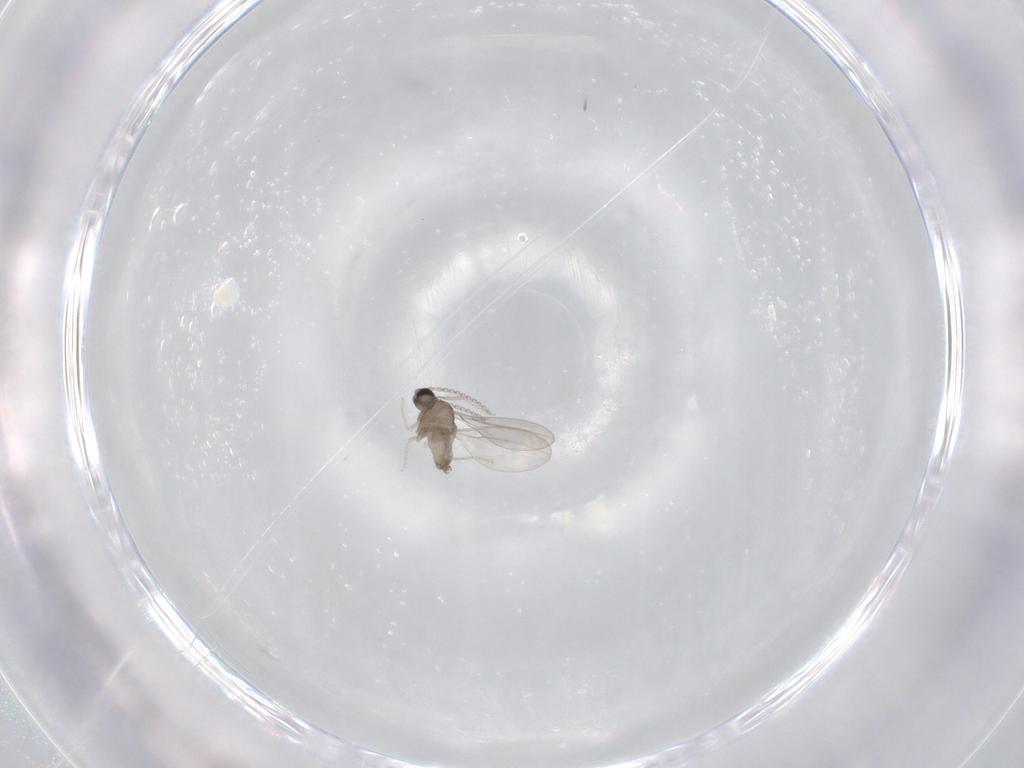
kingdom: Animalia
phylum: Arthropoda
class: Insecta
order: Diptera
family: Cecidomyiidae
